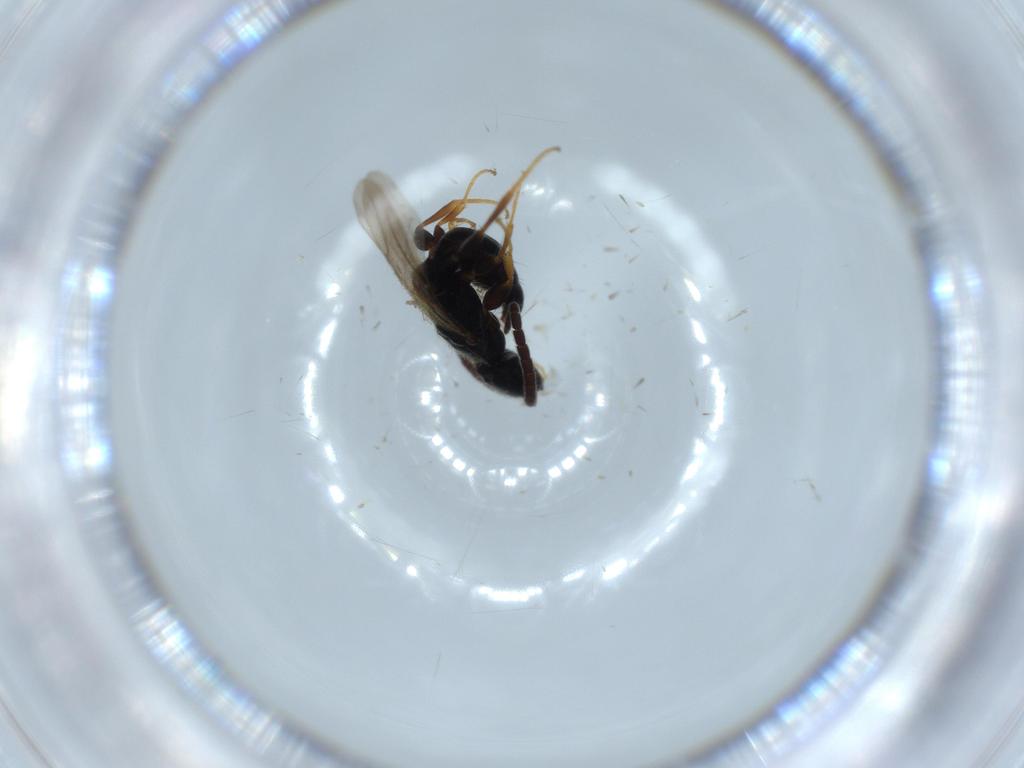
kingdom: Animalia
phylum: Arthropoda
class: Insecta
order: Hymenoptera
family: Bethylidae
